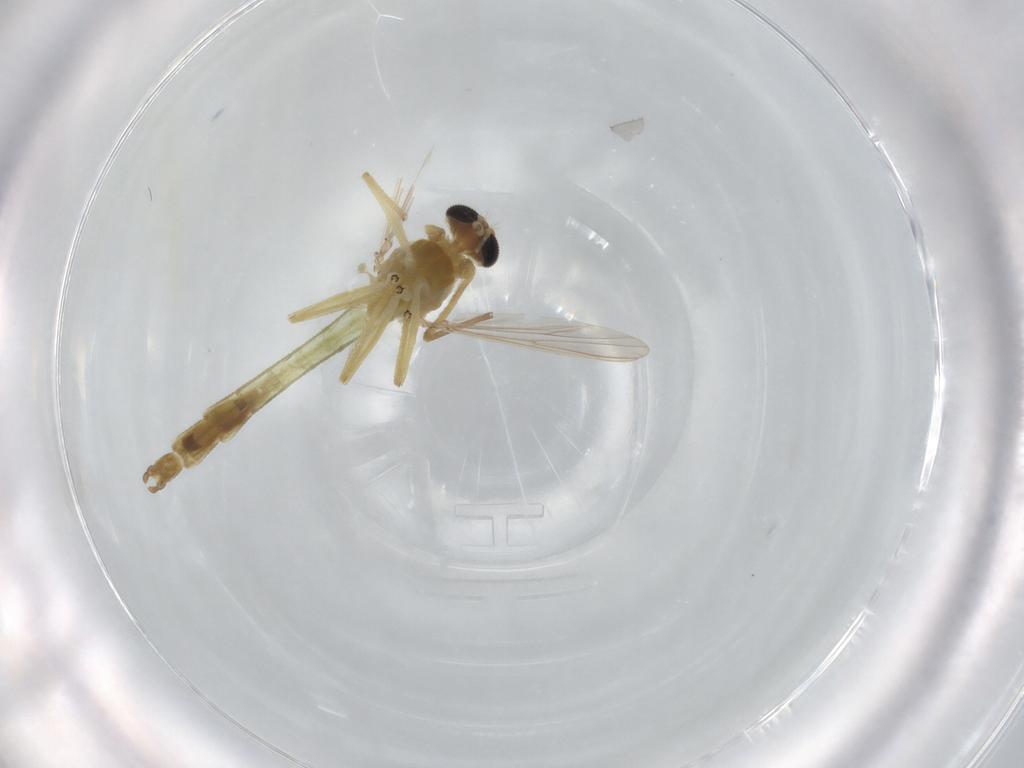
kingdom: Animalia
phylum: Arthropoda
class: Insecta
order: Diptera
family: Chironomidae
